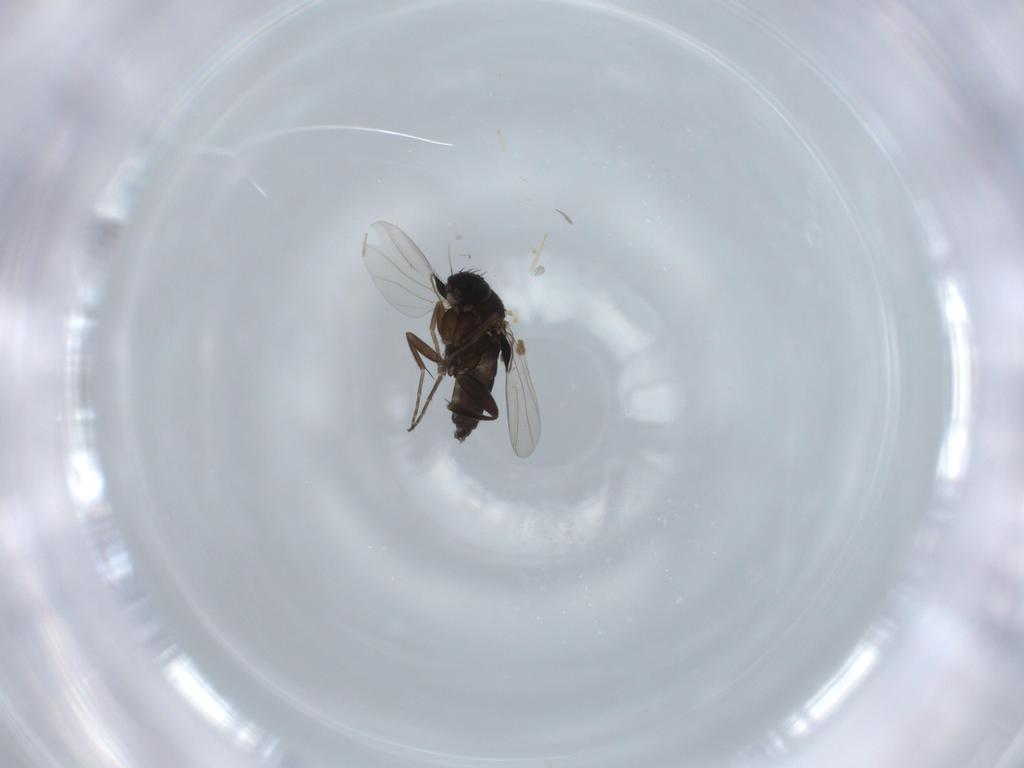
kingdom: Animalia
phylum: Arthropoda
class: Insecta
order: Diptera
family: Phoridae
